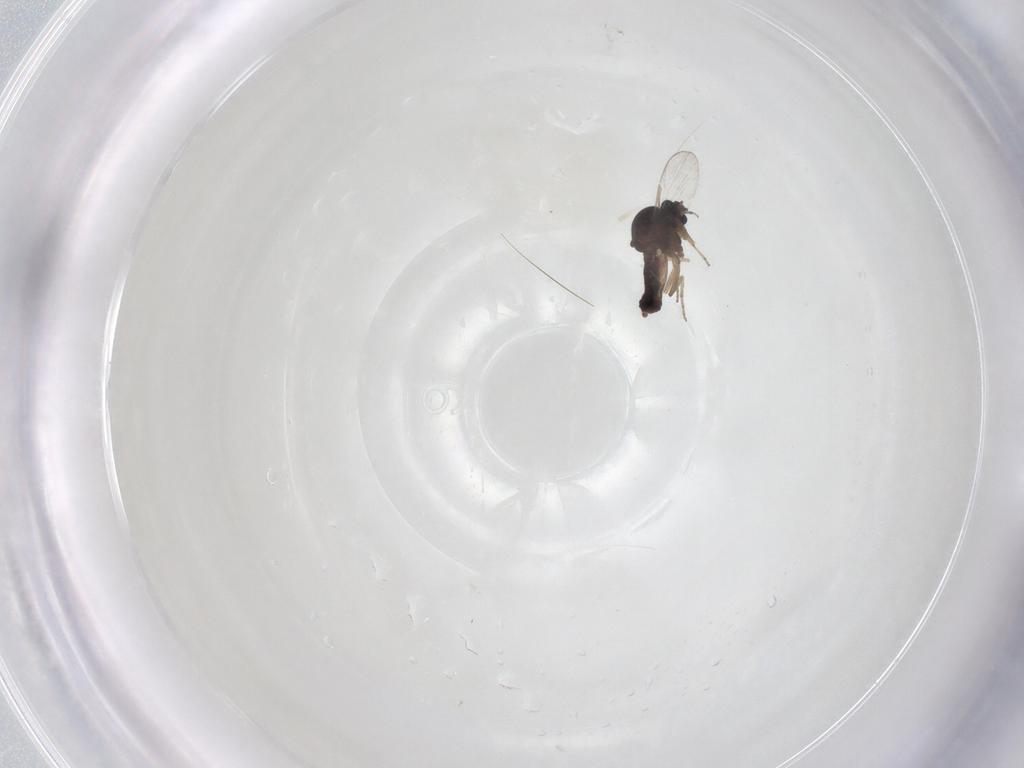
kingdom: Animalia
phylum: Arthropoda
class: Insecta
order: Diptera
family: Ceratopogonidae
